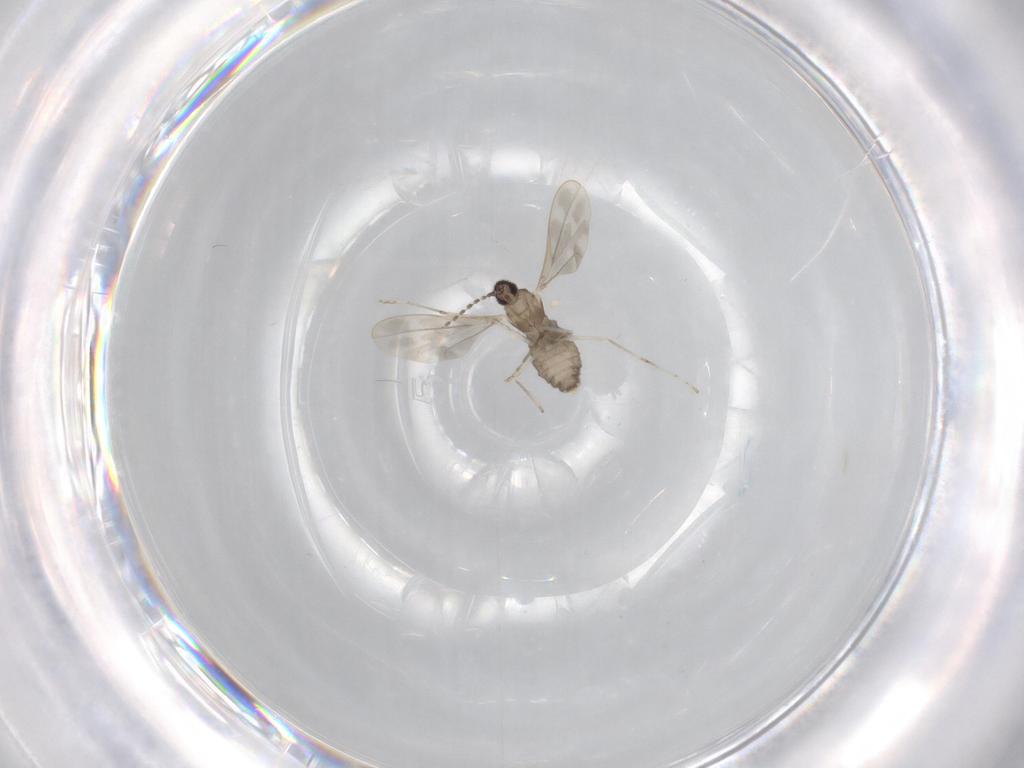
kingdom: Animalia
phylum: Arthropoda
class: Insecta
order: Diptera
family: Cecidomyiidae
